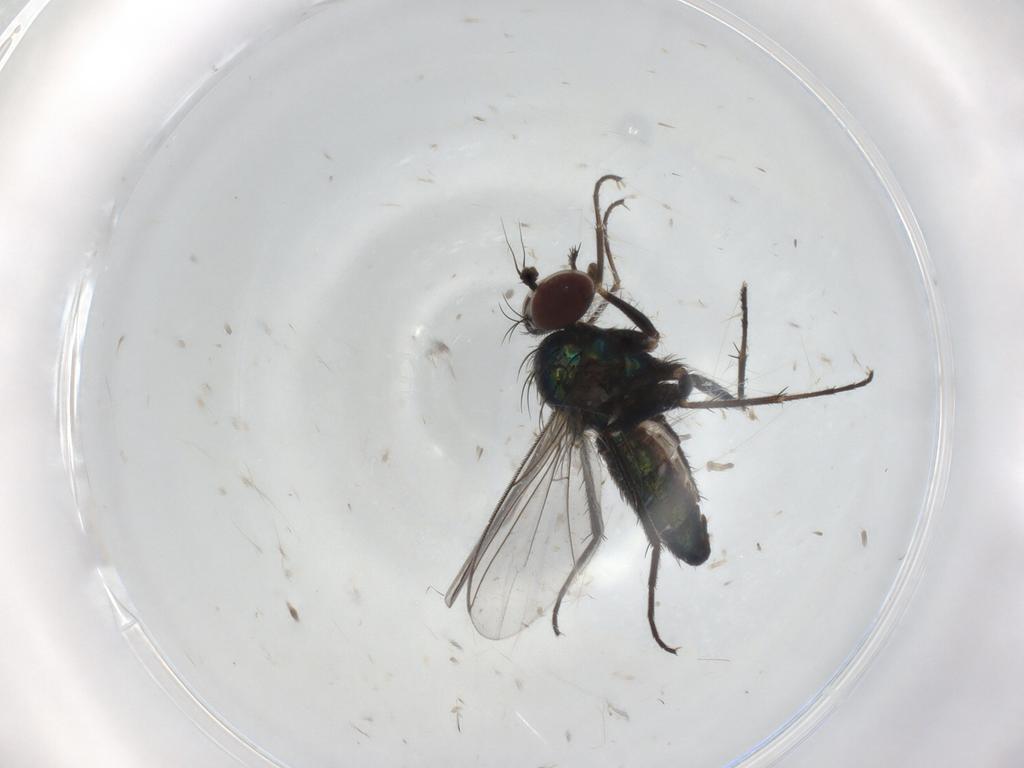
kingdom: Animalia
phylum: Arthropoda
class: Insecta
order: Diptera
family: Dolichopodidae
